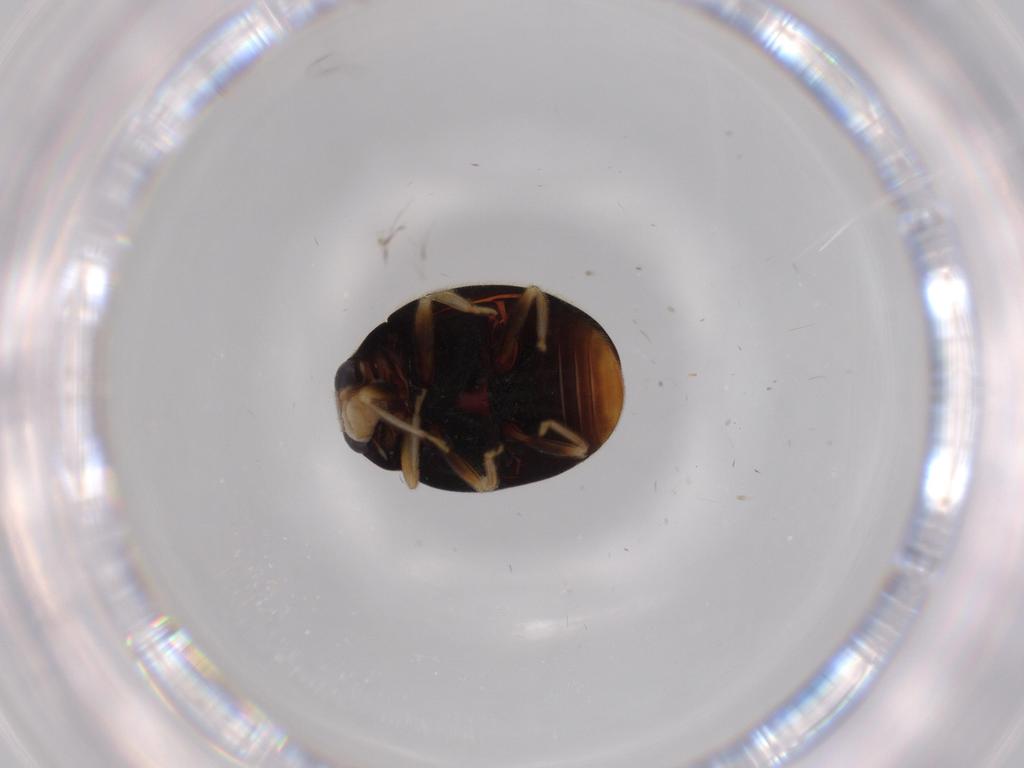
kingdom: Animalia
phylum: Arthropoda
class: Insecta
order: Coleoptera
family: Coccinellidae
